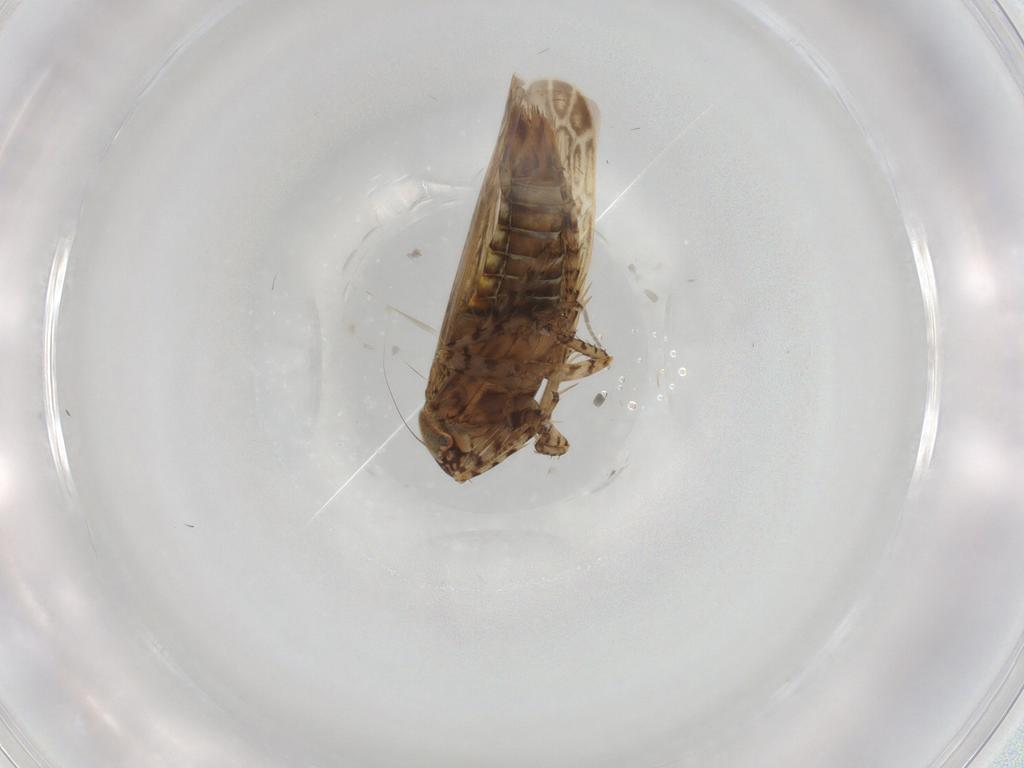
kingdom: Animalia
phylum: Arthropoda
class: Insecta
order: Hemiptera
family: Cicadellidae
